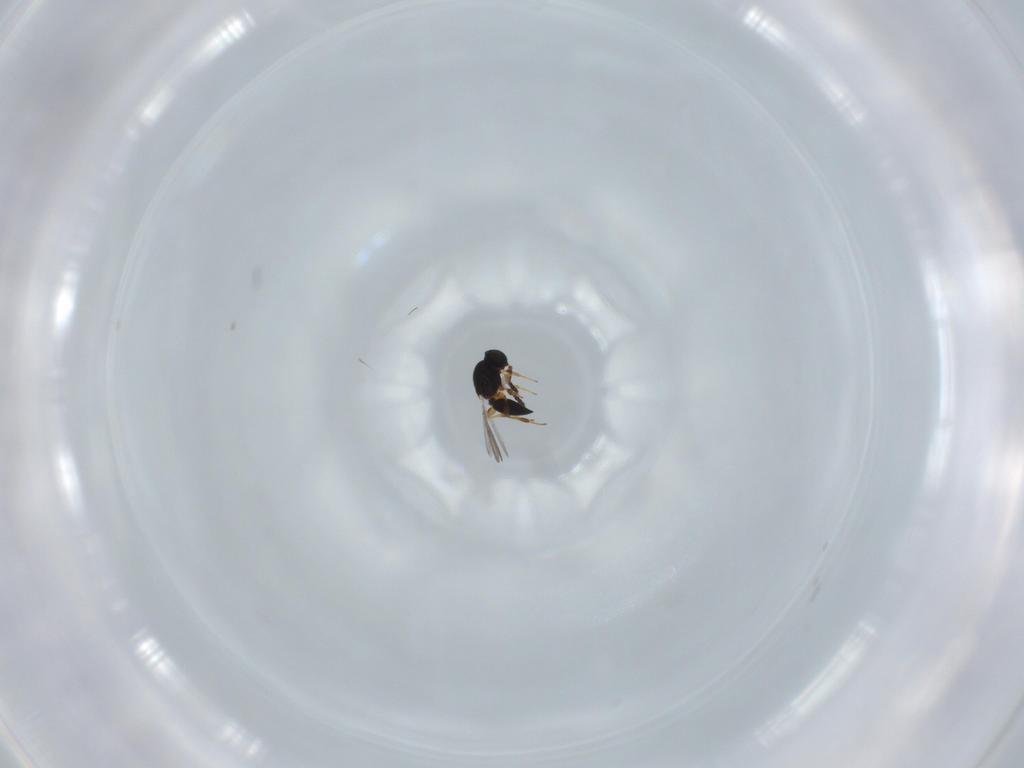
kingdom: Animalia
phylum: Arthropoda
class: Insecta
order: Hymenoptera
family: Platygastridae
